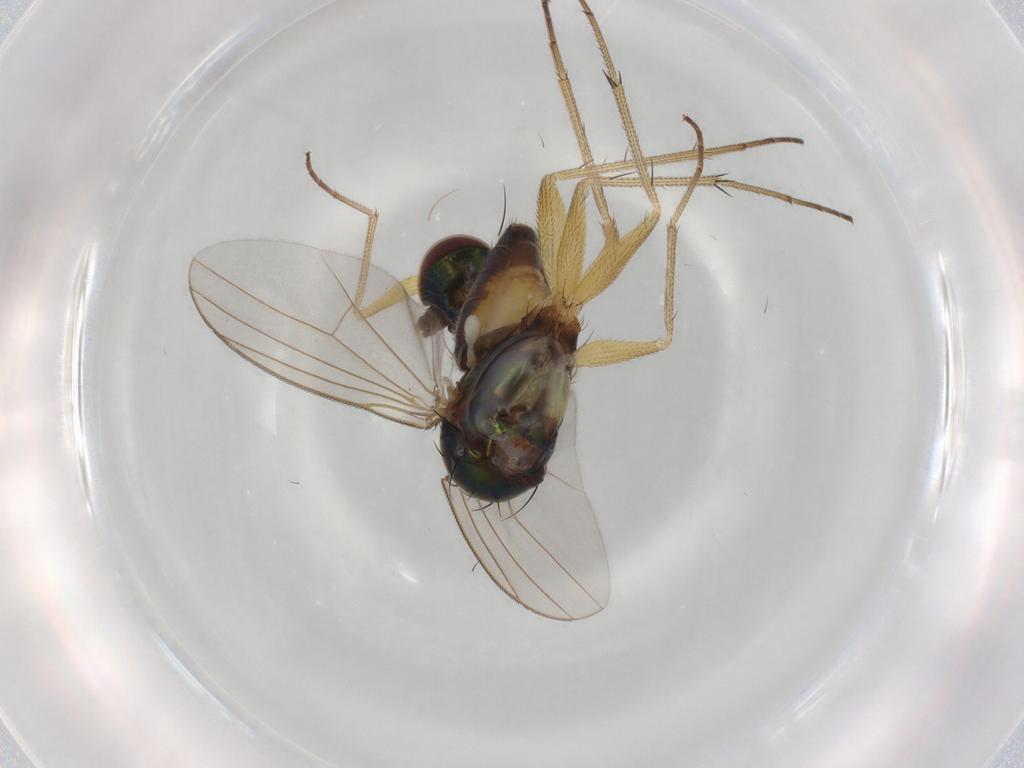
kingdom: Animalia
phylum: Arthropoda
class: Insecta
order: Diptera
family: Dolichopodidae
